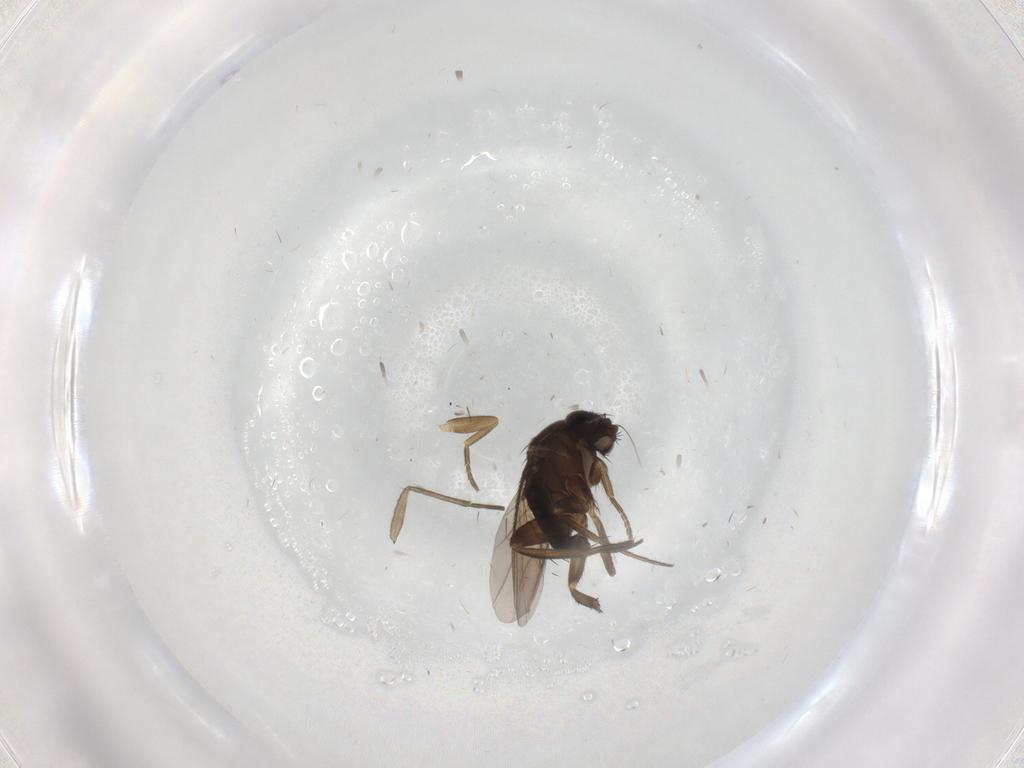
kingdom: Animalia
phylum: Arthropoda
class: Insecta
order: Diptera
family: Phoridae
